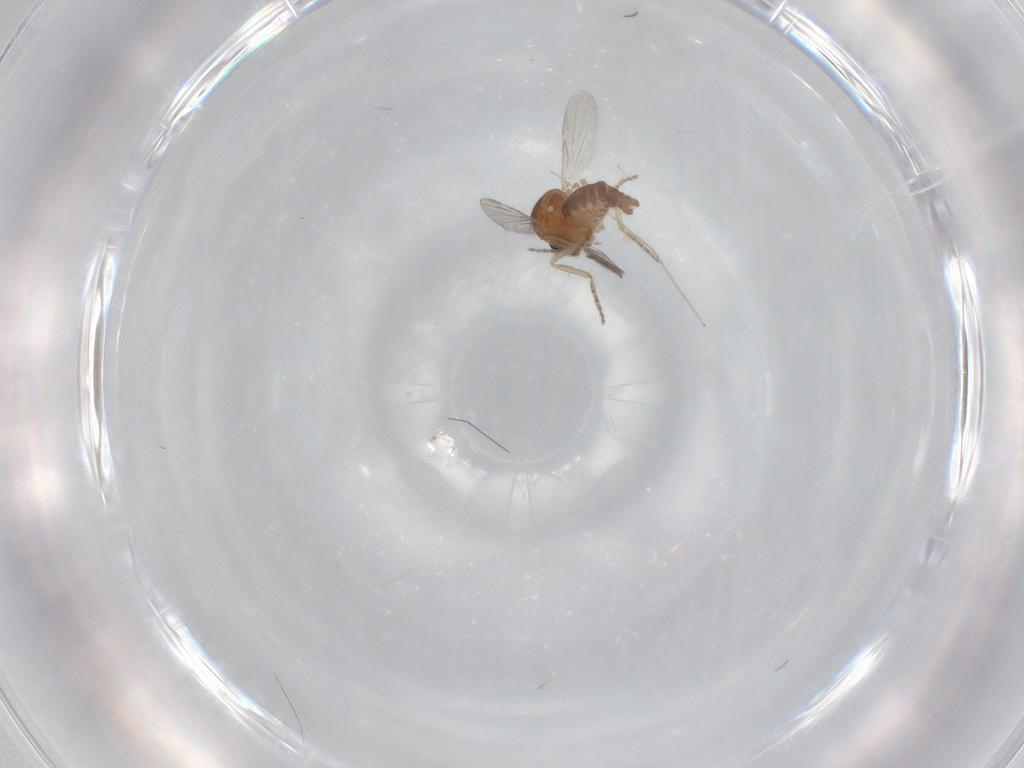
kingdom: Animalia
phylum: Arthropoda
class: Insecta
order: Diptera
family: Ceratopogonidae
